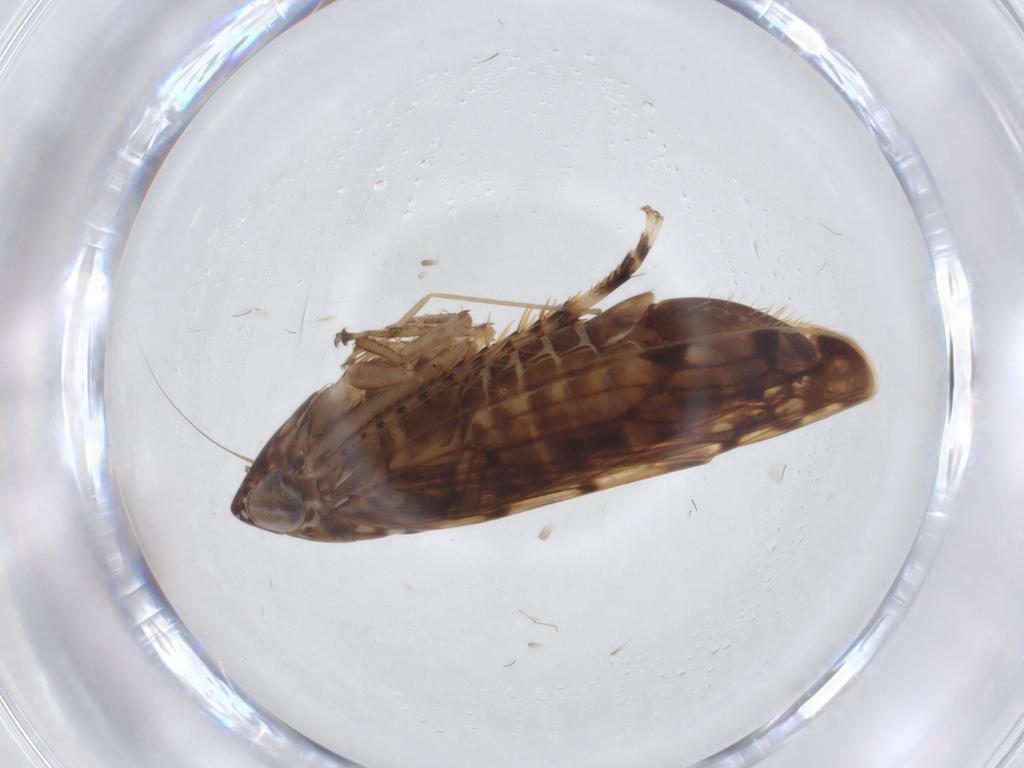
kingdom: Animalia
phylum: Arthropoda
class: Insecta
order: Hemiptera
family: Cicadellidae
